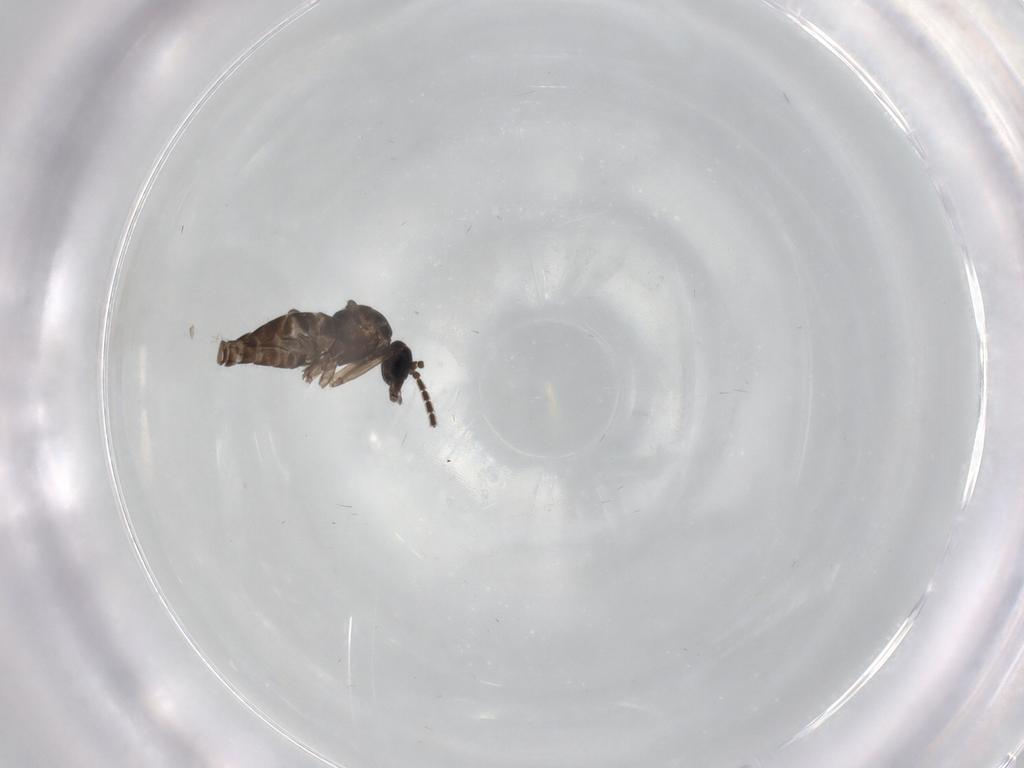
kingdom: Animalia
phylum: Arthropoda
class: Insecta
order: Diptera
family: Cecidomyiidae
